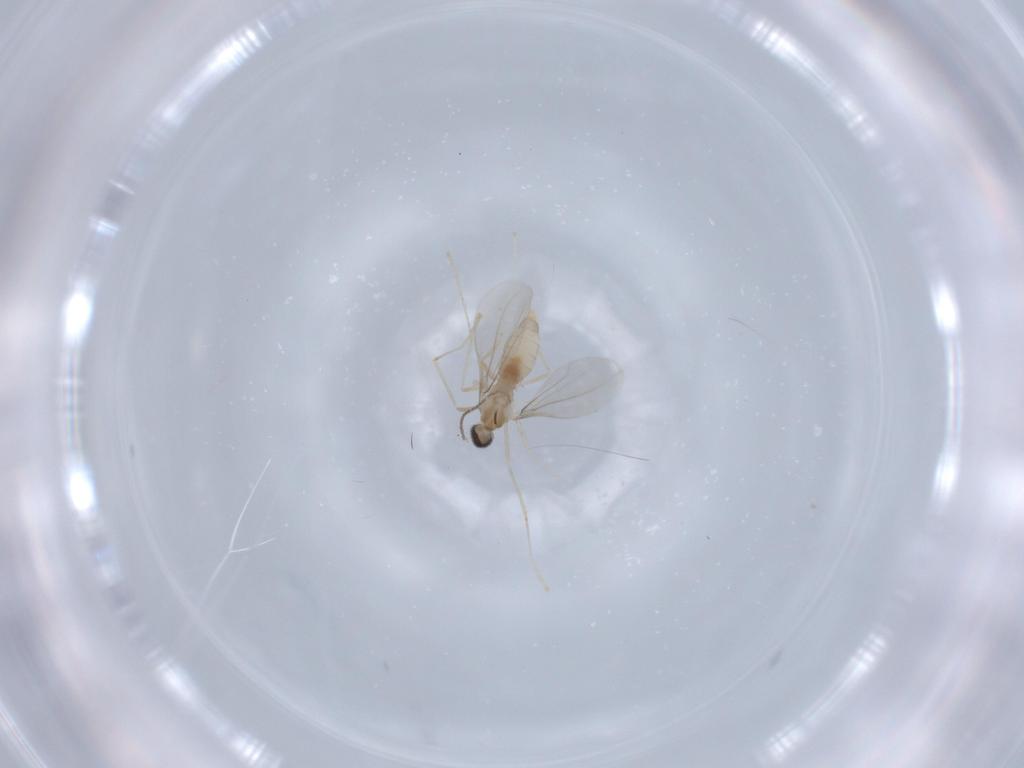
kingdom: Animalia
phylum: Arthropoda
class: Insecta
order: Diptera
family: Cecidomyiidae
